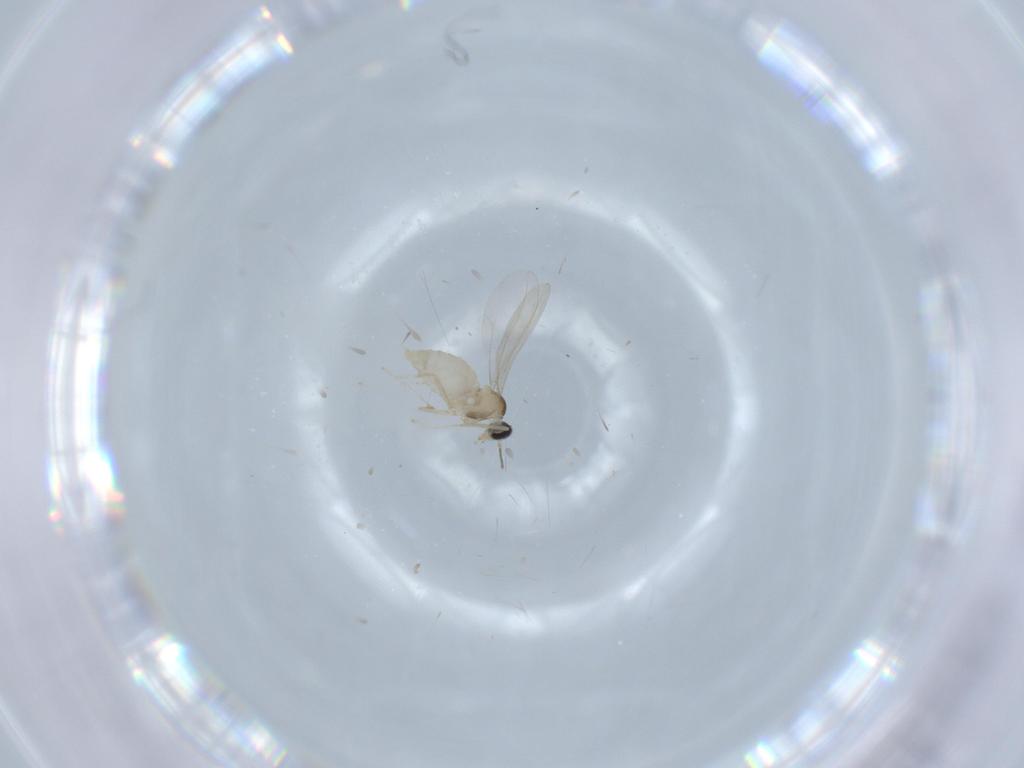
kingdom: Animalia
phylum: Arthropoda
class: Insecta
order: Diptera
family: Cecidomyiidae
